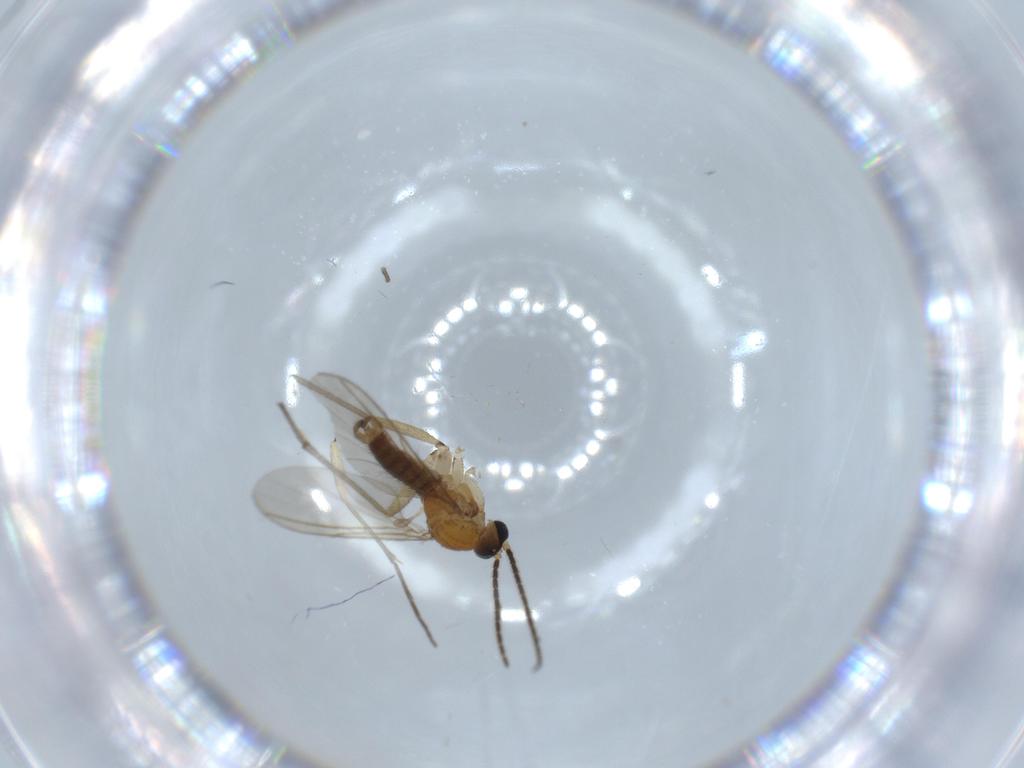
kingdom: Animalia
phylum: Arthropoda
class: Insecta
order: Diptera
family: Sciaridae
